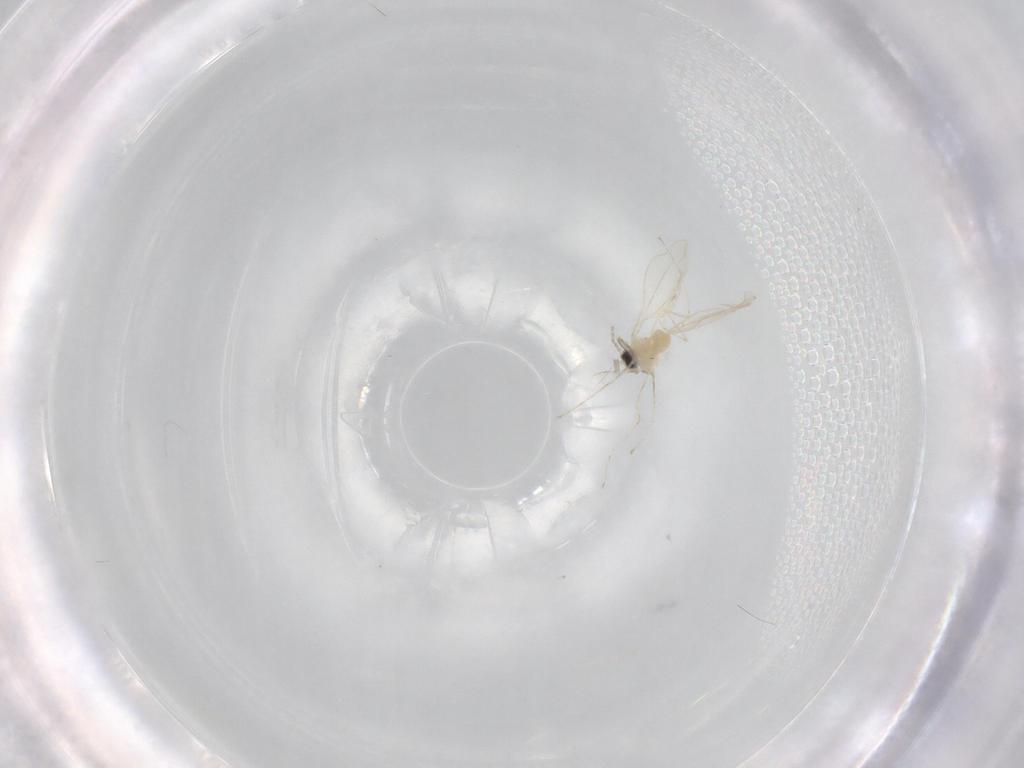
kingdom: Animalia
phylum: Arthropoda
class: Insecta
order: Diptera
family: Cecidomyiidae
